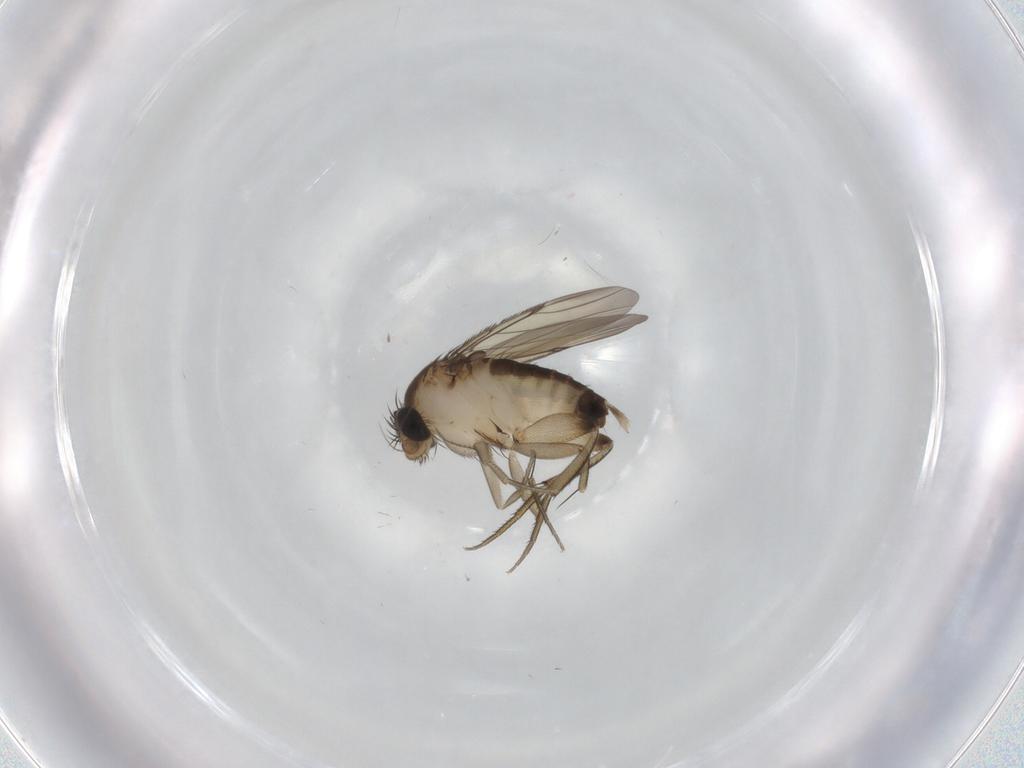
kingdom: Animalia
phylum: Arthropoda
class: Insecta
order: Diptera
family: Phoridae
